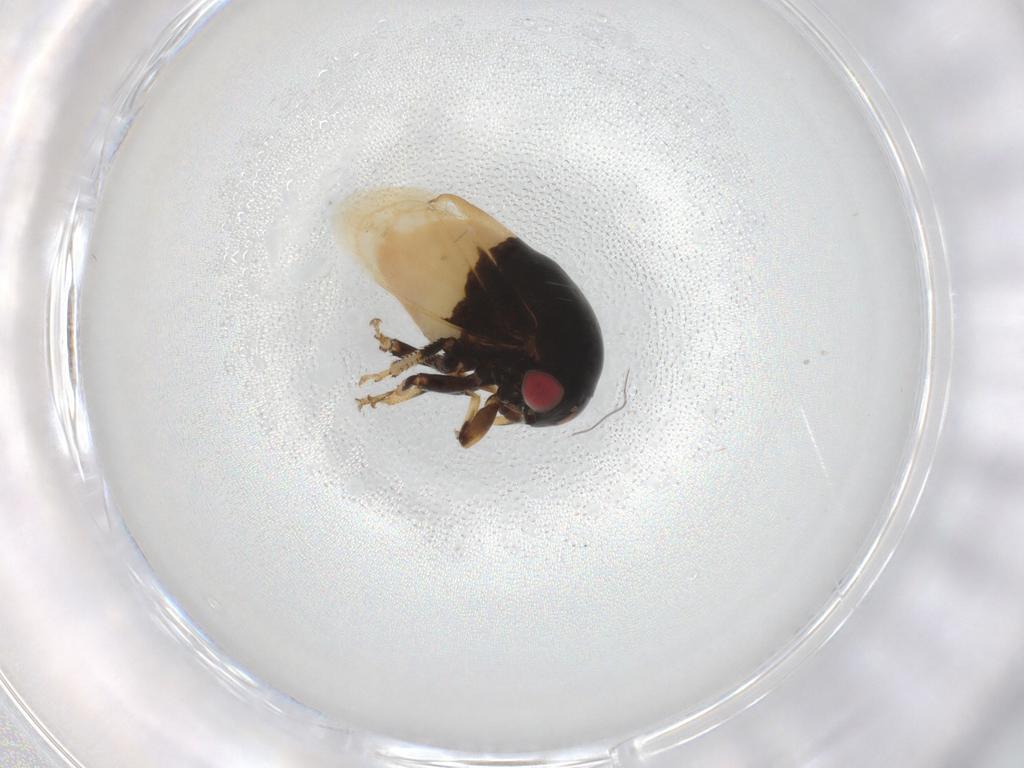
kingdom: Animalia
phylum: Arthropoda
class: Insecta
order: Hemiptera
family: Membracidae
